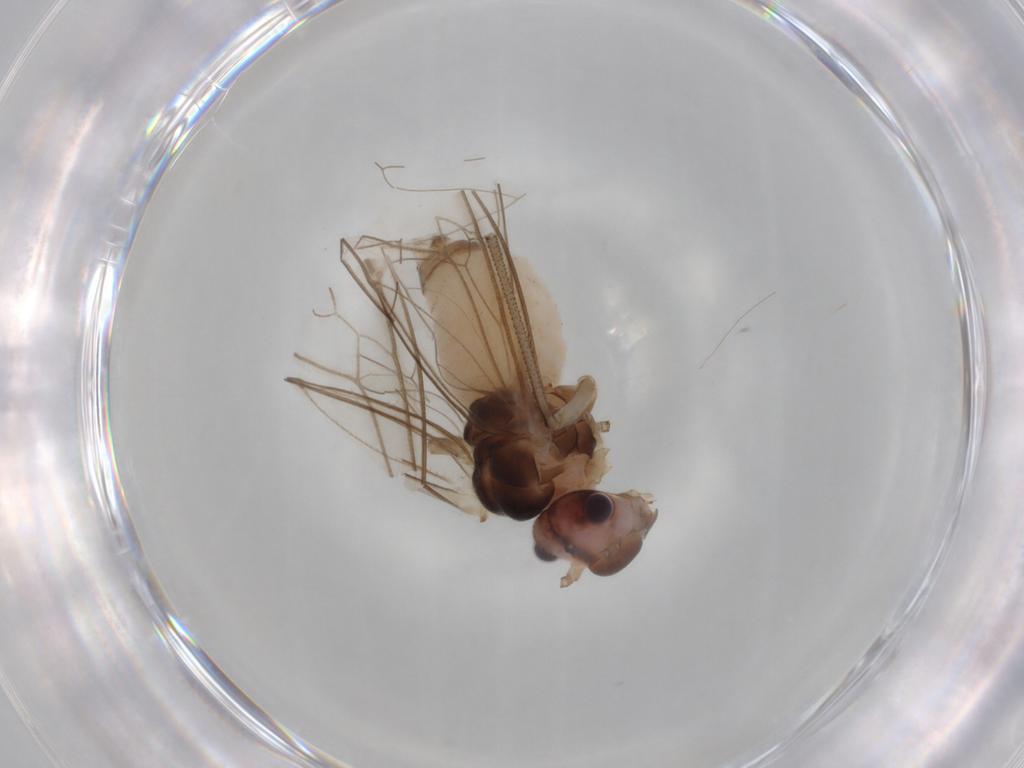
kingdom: Animalia
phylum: Arthropoda
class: Insecta
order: Psocodea
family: Stenopsocidae
